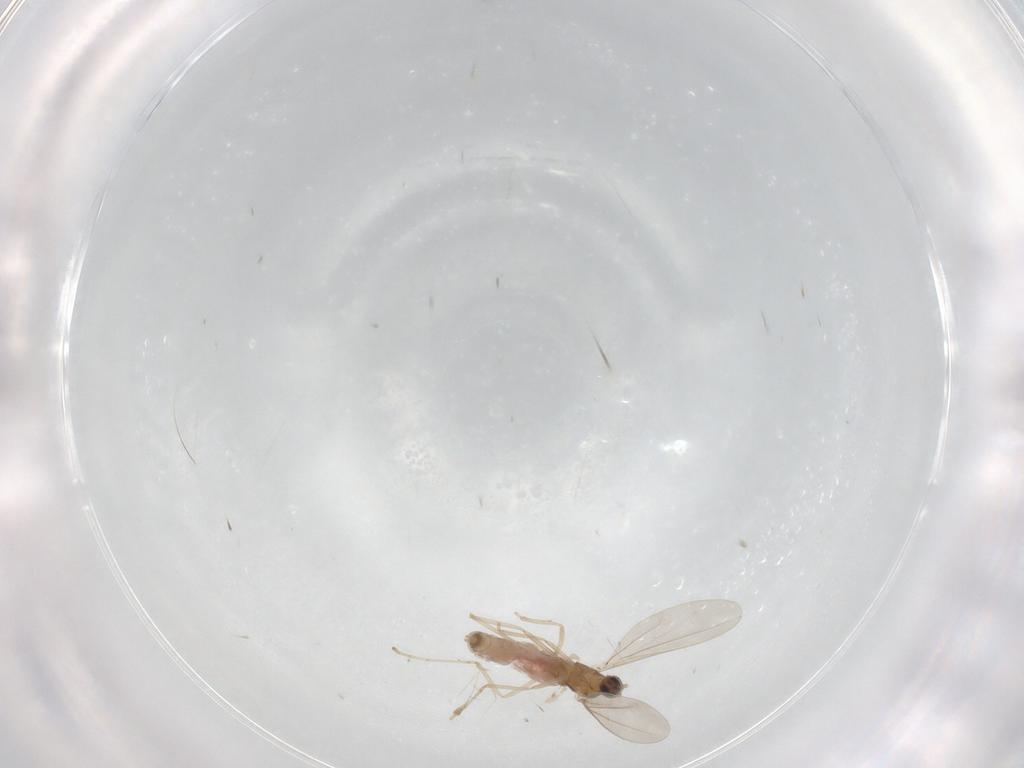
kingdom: Animalia
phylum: Arthropoda
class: Insecta
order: Diptera
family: Cecidomyiidae
